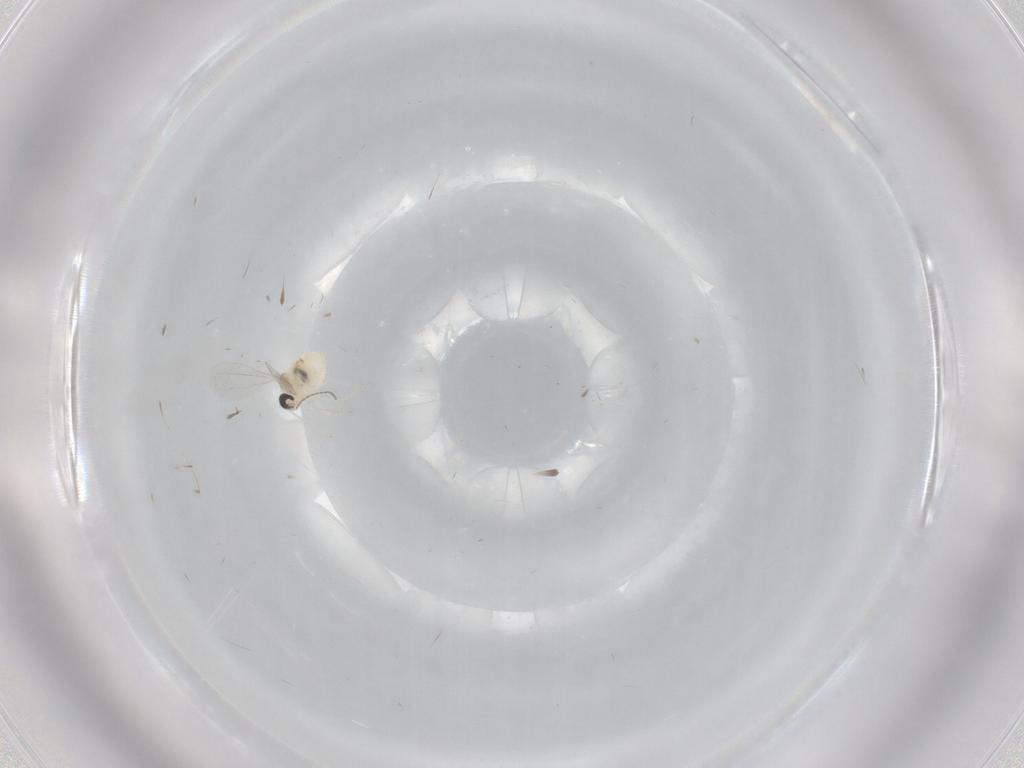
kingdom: Animalia
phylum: Arthropoda
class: Insecta
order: Diptera
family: Cecidomyiidae
